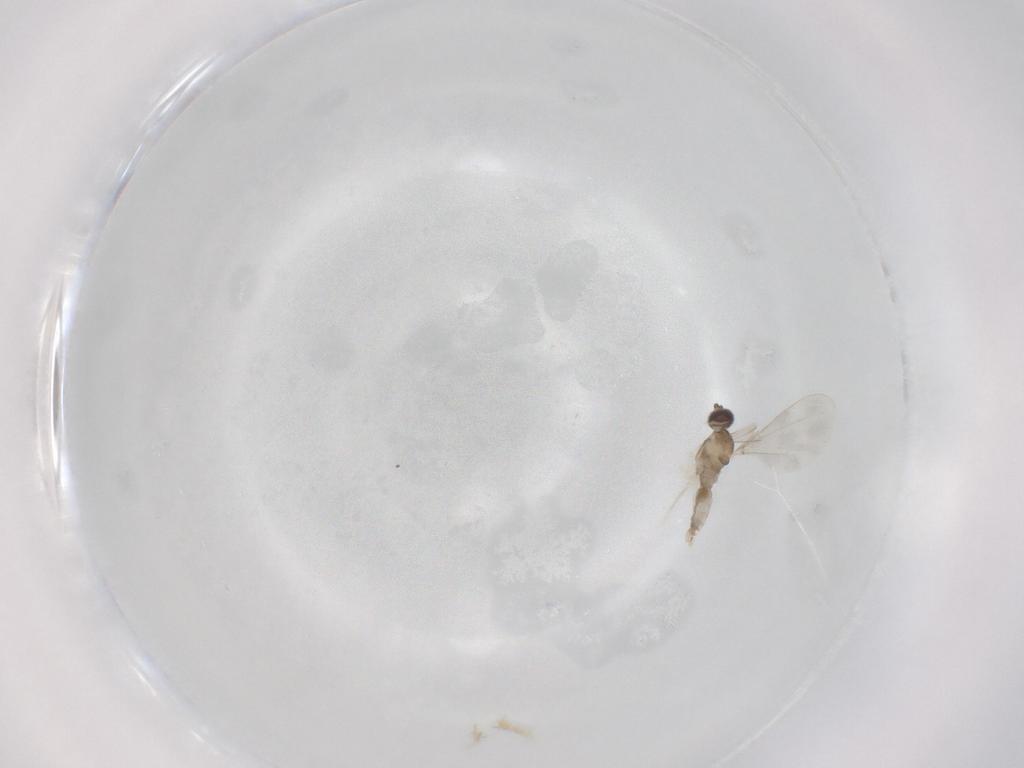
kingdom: Animalia
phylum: Arthropoda
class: Insecta
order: Diptera
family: Cecidomyiidae
